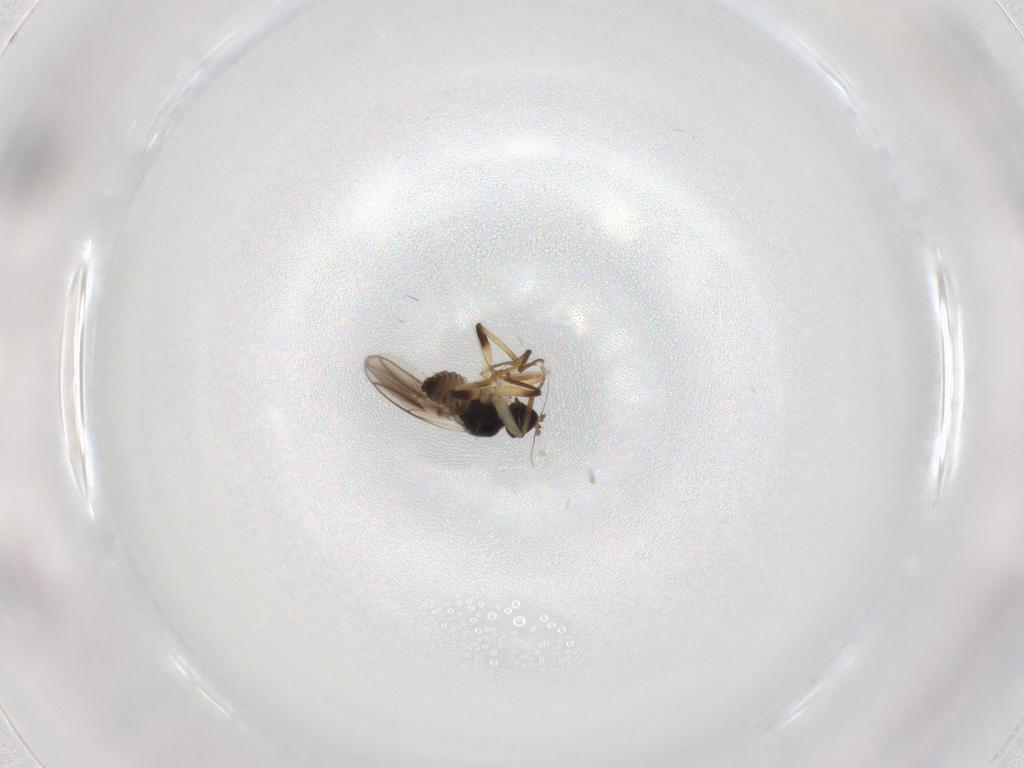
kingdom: Animalia
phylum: Arthropoda
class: Insecta
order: Diptera
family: Hybotidae
